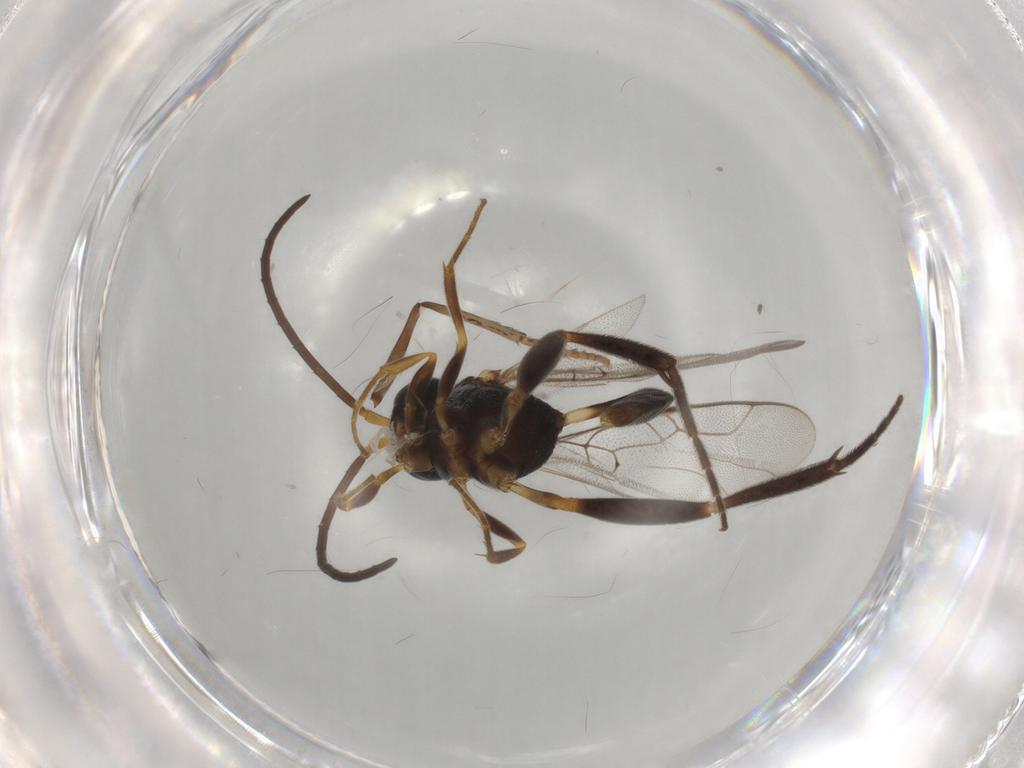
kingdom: Animalia
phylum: Arthropoda
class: Insecta
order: Hymenoptera
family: Evaniidae
